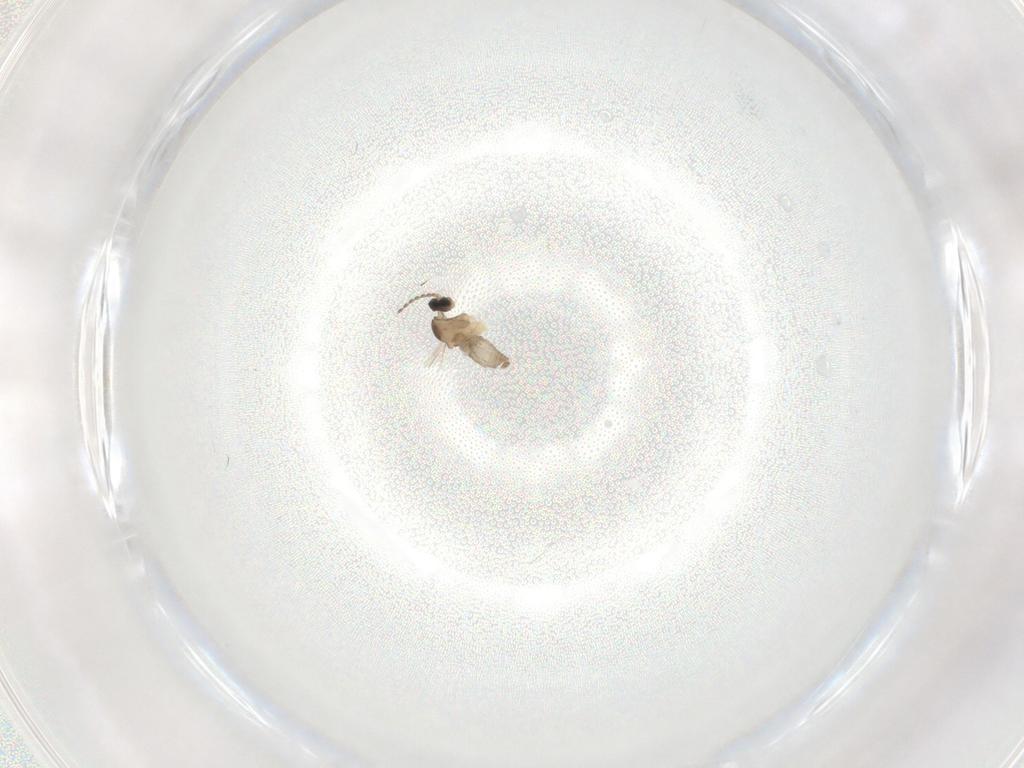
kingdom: Animalia
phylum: Arthropoda
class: Insecta
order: Diptera
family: Cecidomyiidae
